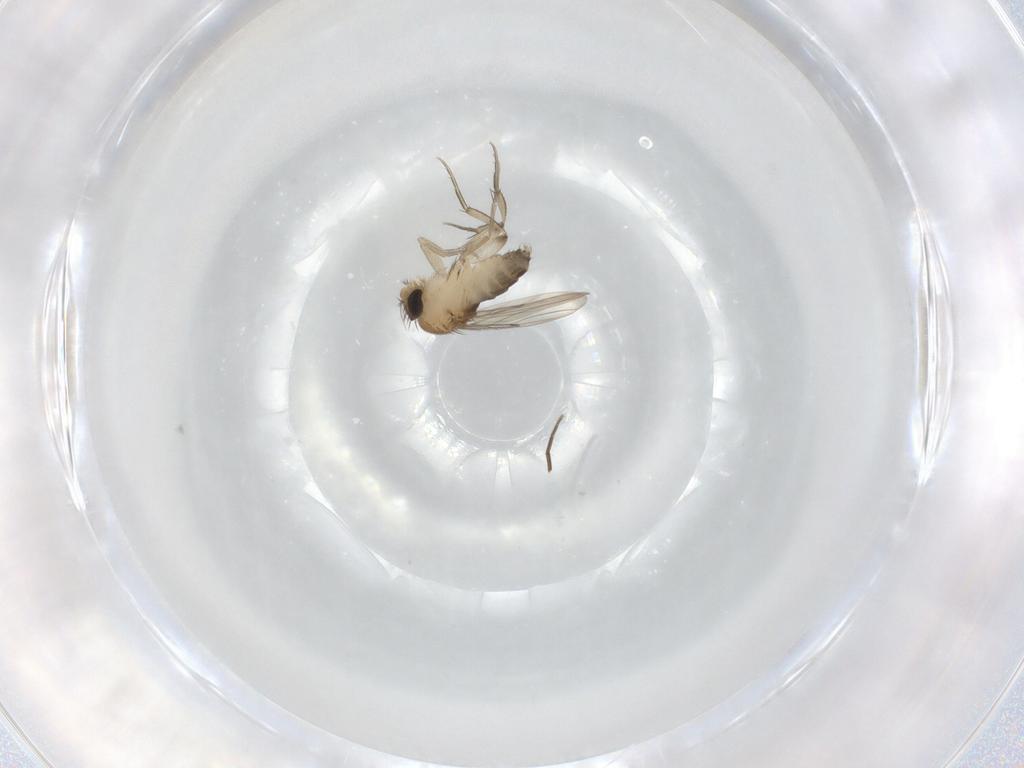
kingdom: Animalia
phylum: Arthropoda
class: Insecta
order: Diptera
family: Phoridae
